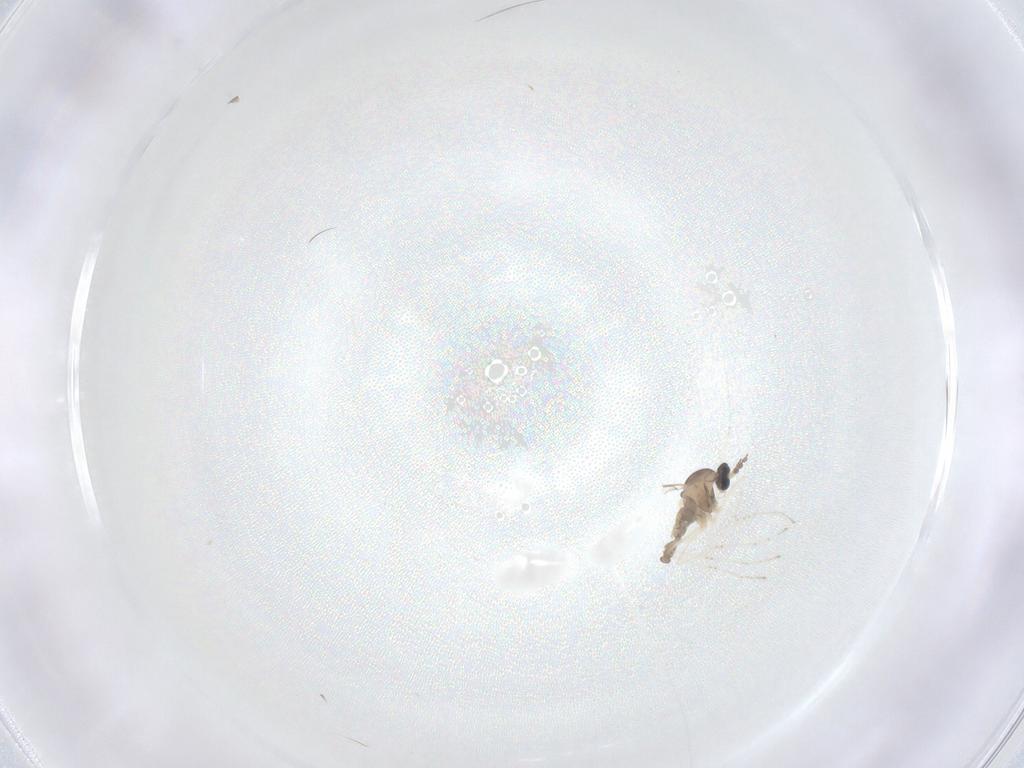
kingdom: Animalia
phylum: Arthropoda
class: Insecta
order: Diptera
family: Cecidomyiidae
